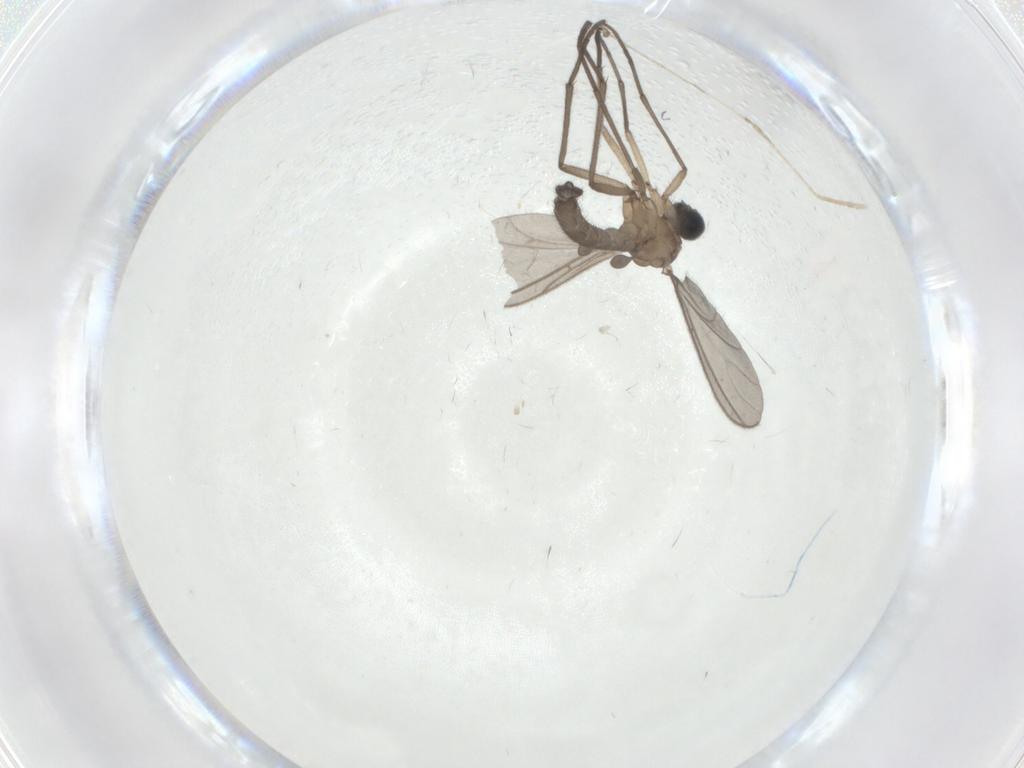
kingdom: Animalia
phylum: Arthropoda
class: Insecta
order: Diptera
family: Sciaridae
